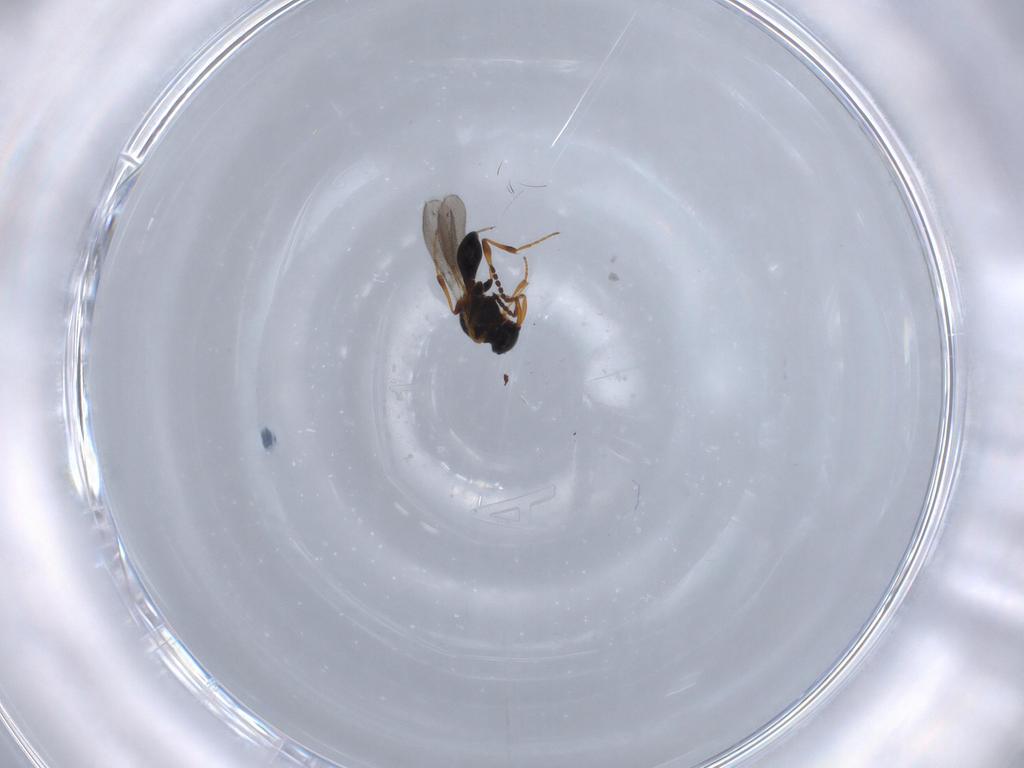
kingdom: Animalia
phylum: Arthropoda
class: Insecta
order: Hymenoptera
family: Platygastridae
